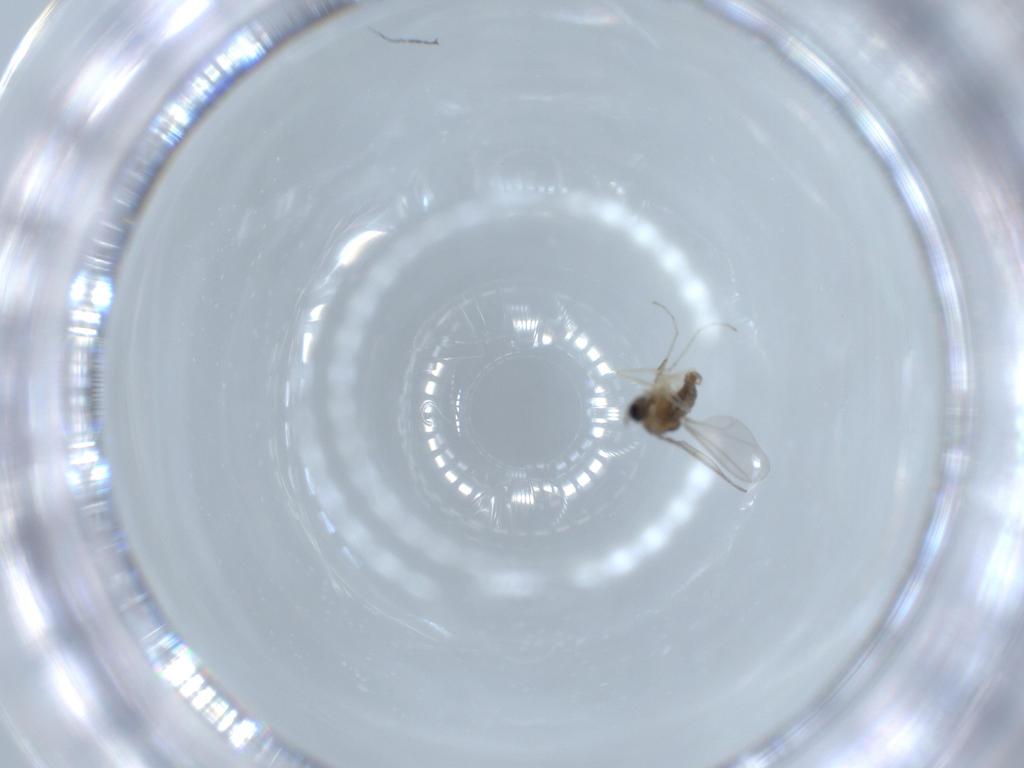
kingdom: Animalia
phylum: Arthropoda
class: Insecta
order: Diptera
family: Cecidomyiidae
